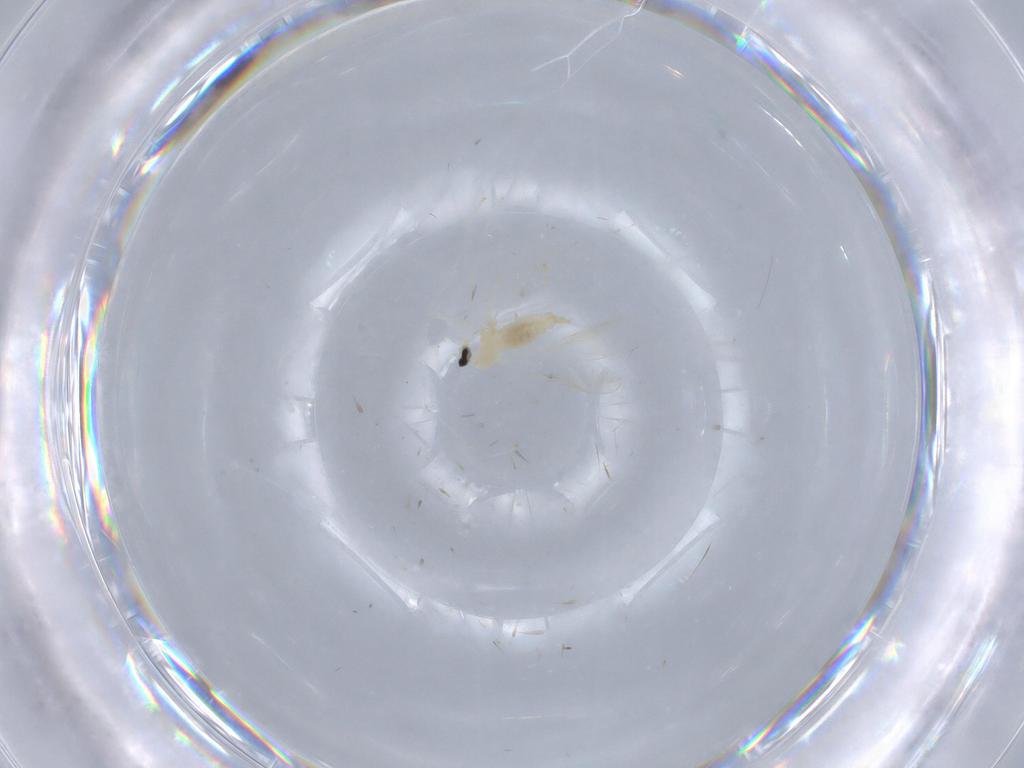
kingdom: Animalia
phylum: Arthropoda
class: Insecta
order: Diptera
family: Muscidae
